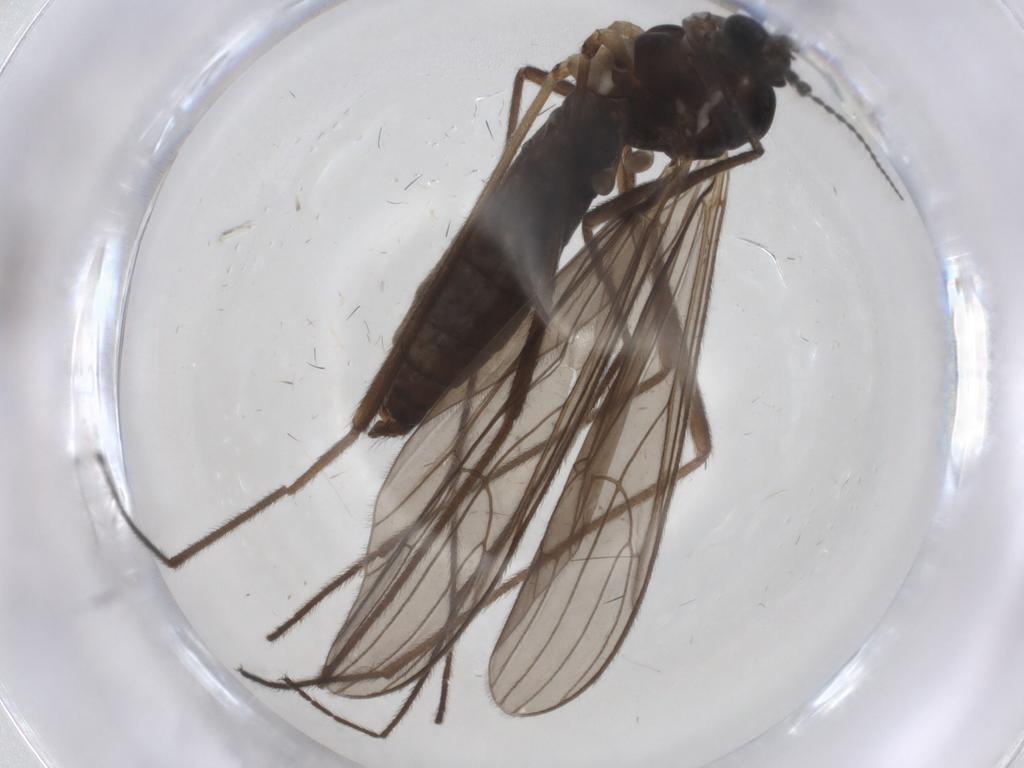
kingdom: Animalia
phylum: Arthropoda
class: Insecta
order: Diptera
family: Limoniidae
